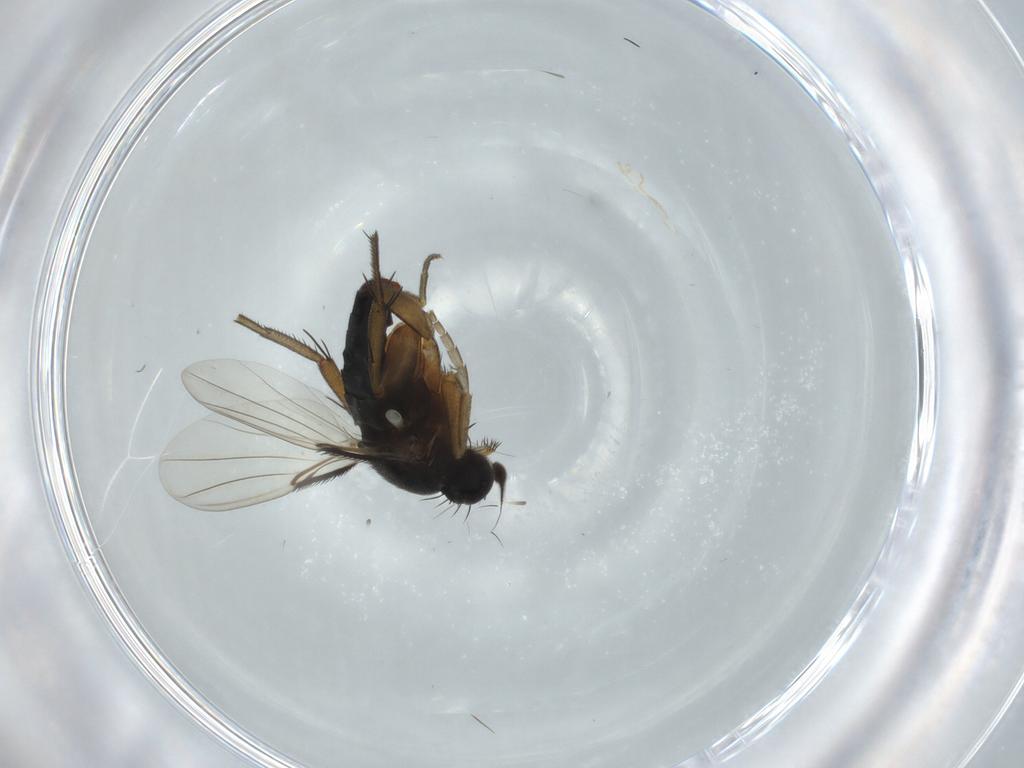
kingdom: Animalia
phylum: Arthropoda
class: Insecta
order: Diptera
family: Phoridae
